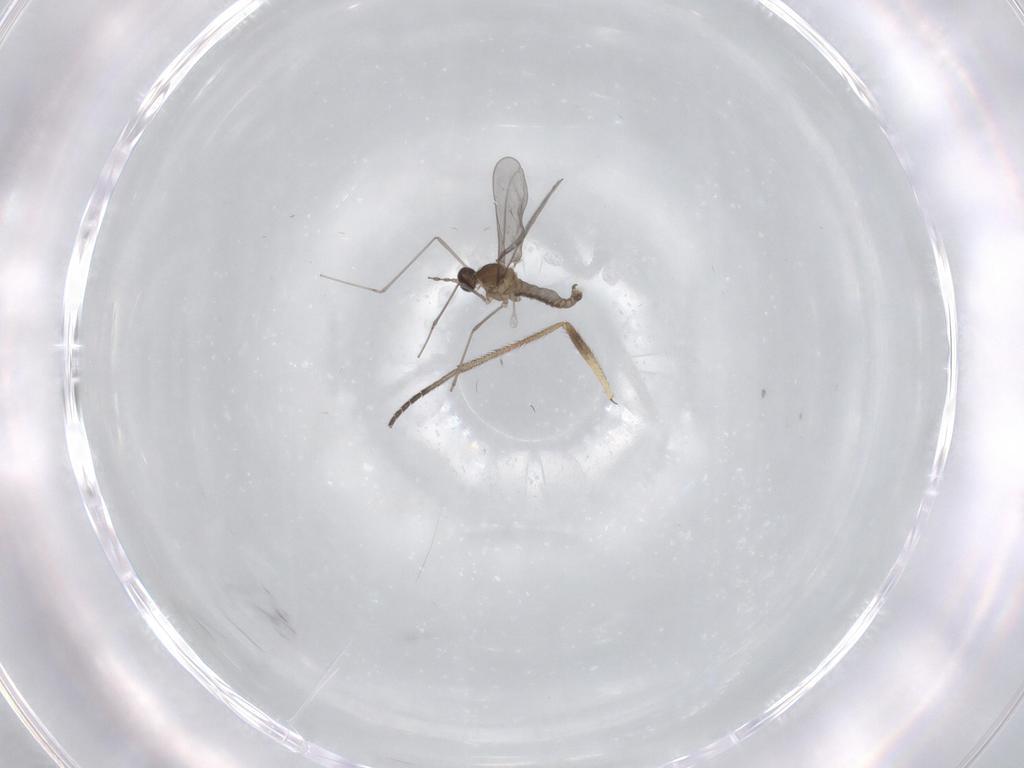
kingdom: Animalia
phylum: Arthropoda
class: Insecta
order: Diptera
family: Sciaridae
